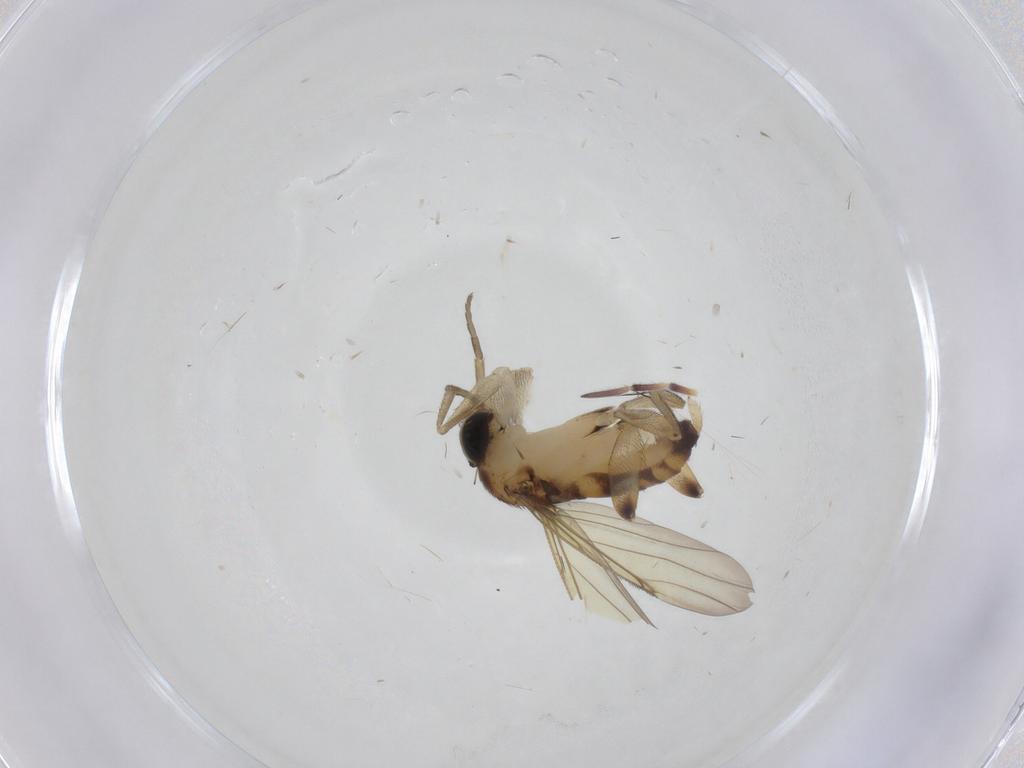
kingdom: Animalia
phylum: Arthropoda
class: Insecta
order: Diptera
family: Phoridae
